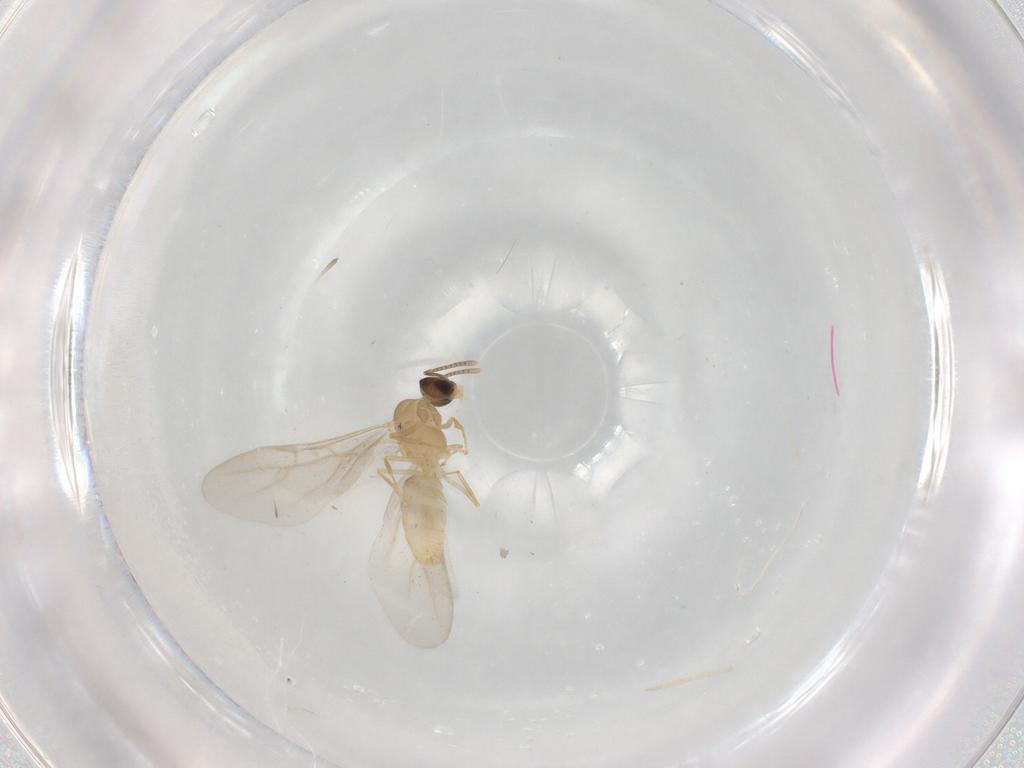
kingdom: Animalia
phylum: Arthropoda
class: Insecta
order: Hymenoptera
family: Formicidae
